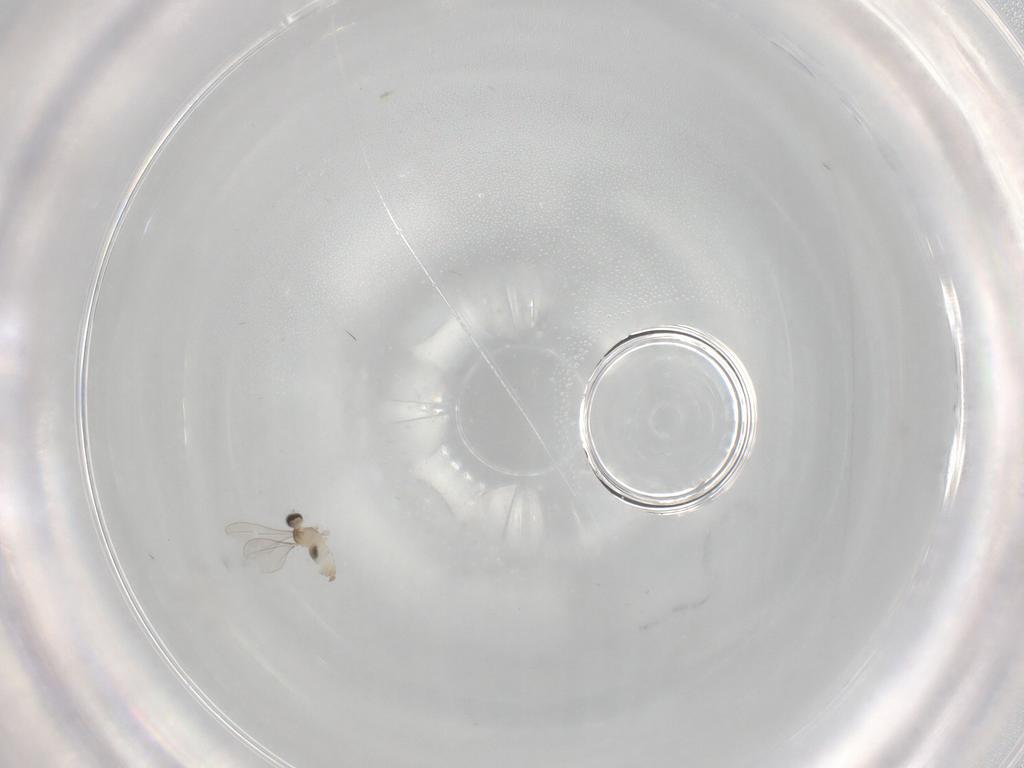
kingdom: Animalia
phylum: Arthropoda
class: Insecta
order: Diptera
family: Cecidomyiidae
